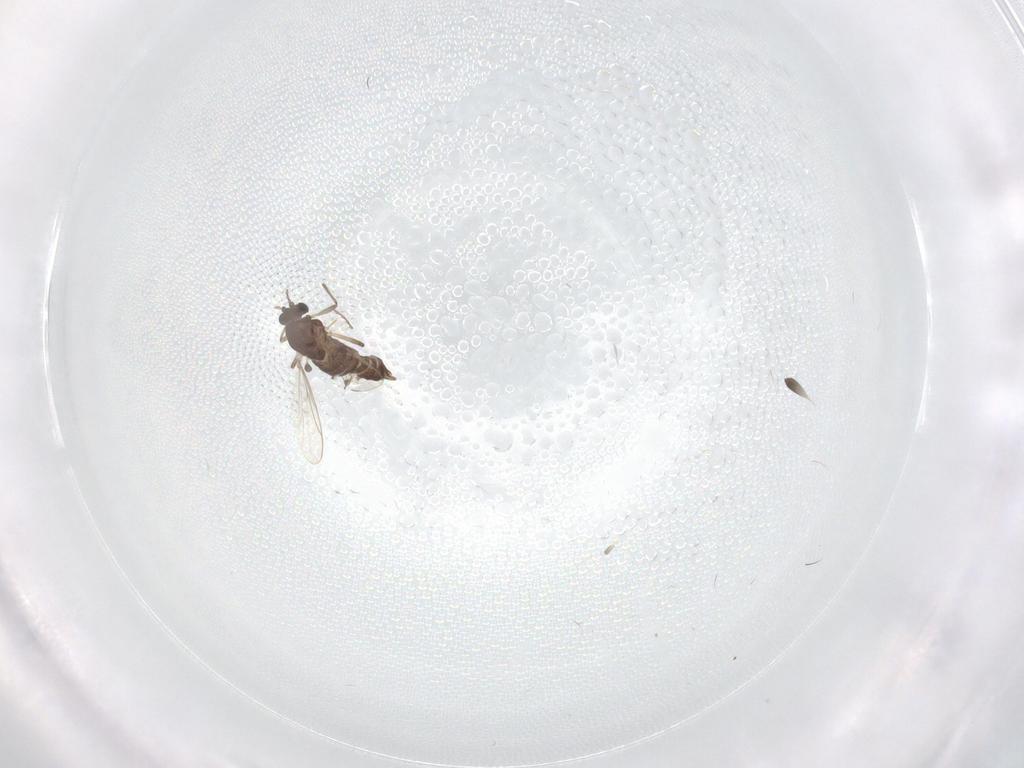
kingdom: Animalia
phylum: Arthropoda
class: Insecta
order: Diptera
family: Chironomidae
